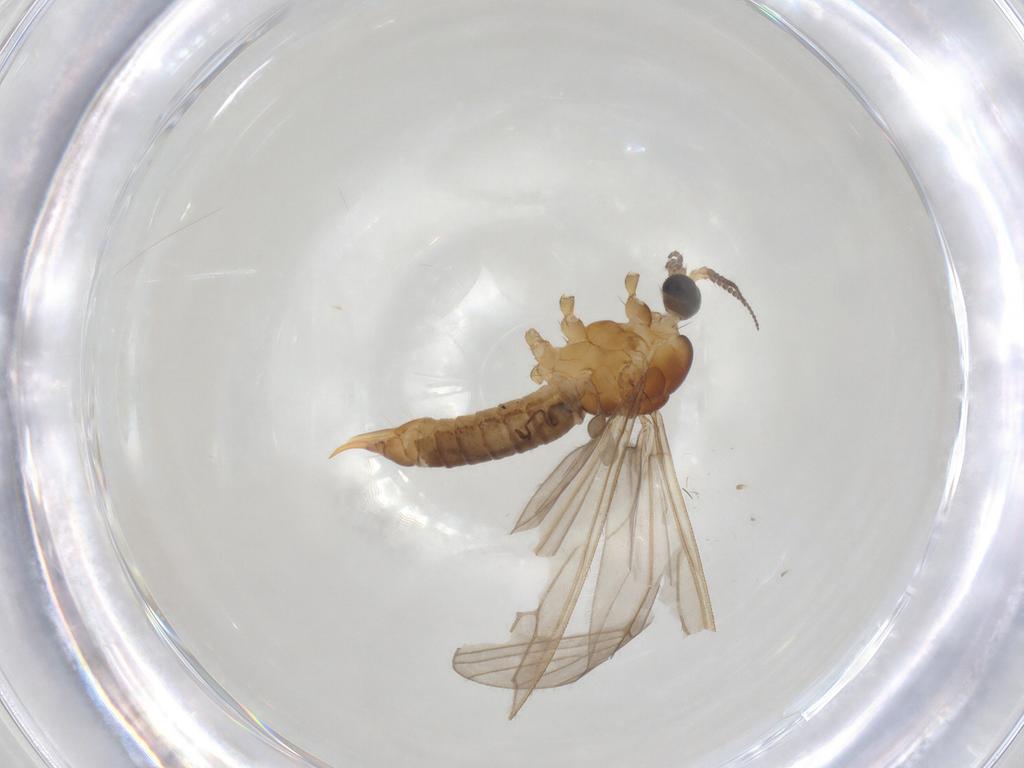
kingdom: Animalia
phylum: Arthropoda
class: Insecta
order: Diptera
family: Limoniidae
